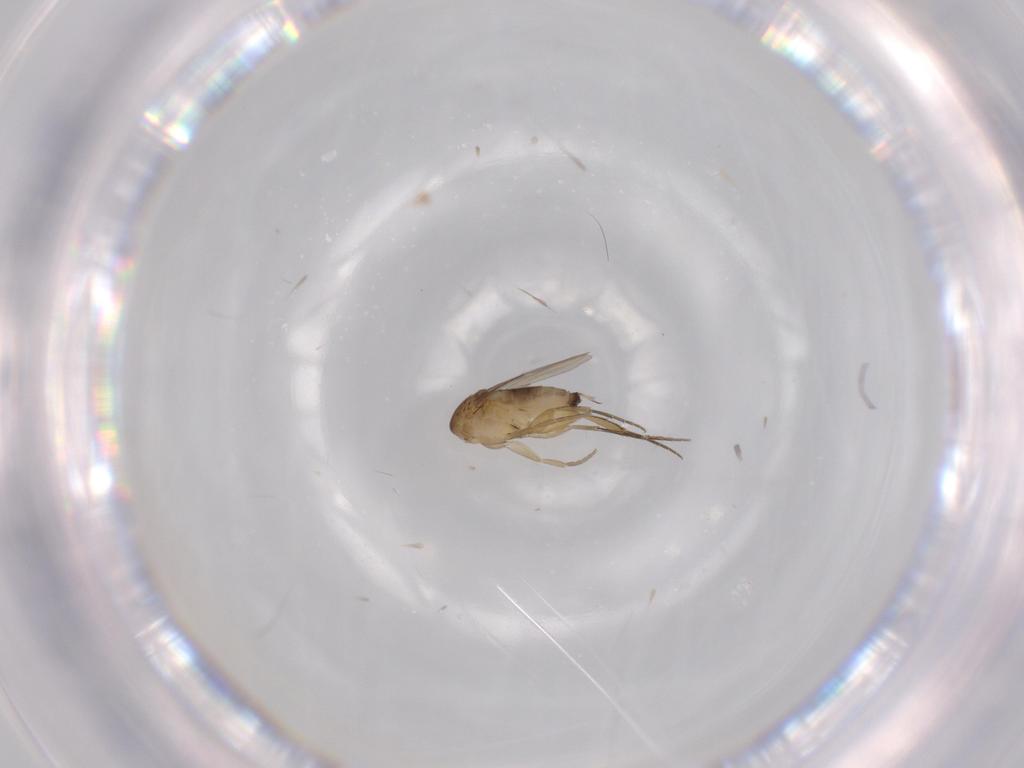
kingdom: Animalia
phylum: Arthropoda
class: Insecta
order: Diptera
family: Phoridae
